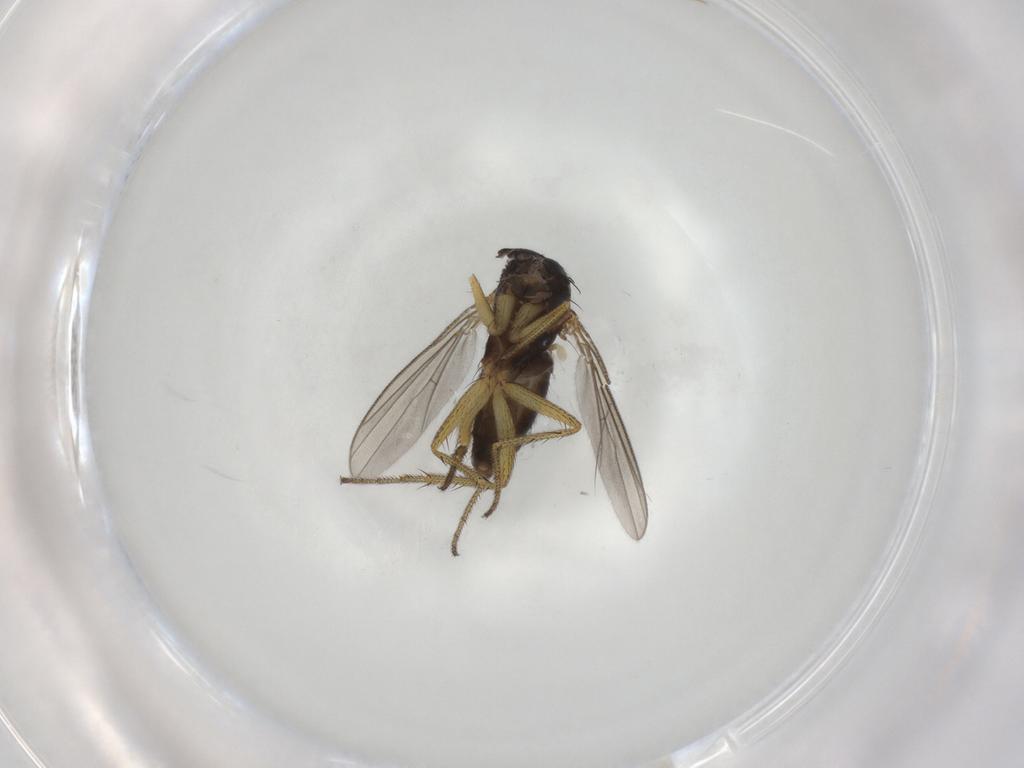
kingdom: Animalia
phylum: Arthropoda
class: Insecta
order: Diptera
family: Dolichopodidae
